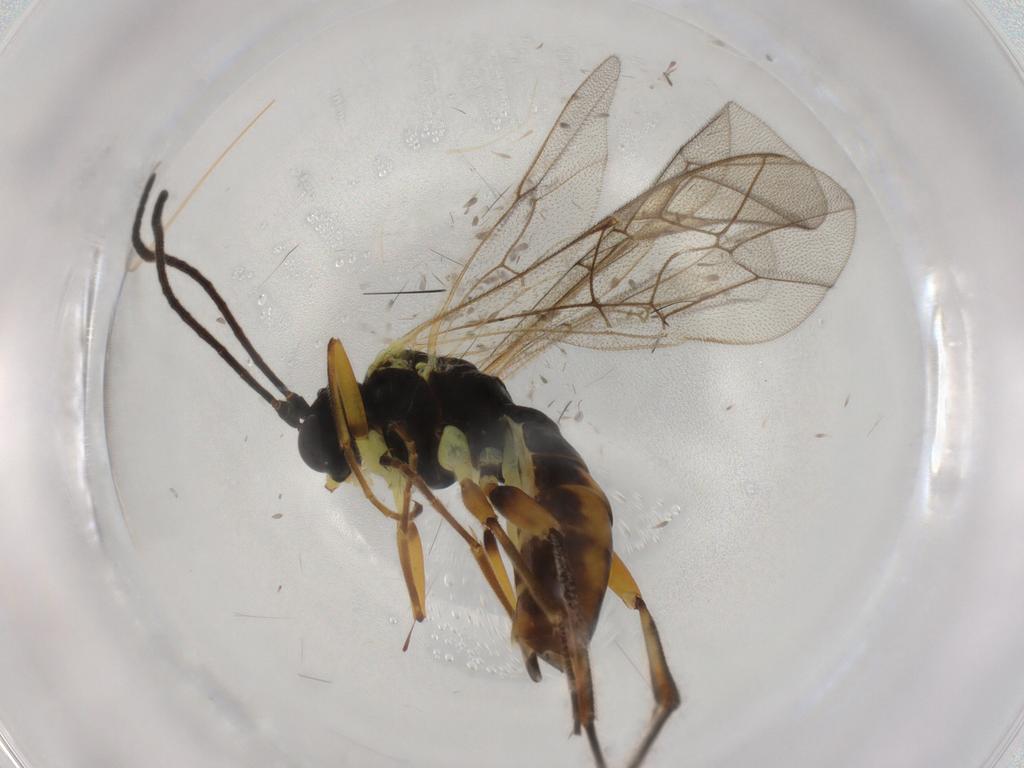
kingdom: Animalia
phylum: Arthropoda
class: Insecta
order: Hymenoptera
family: Ichneumonidae
